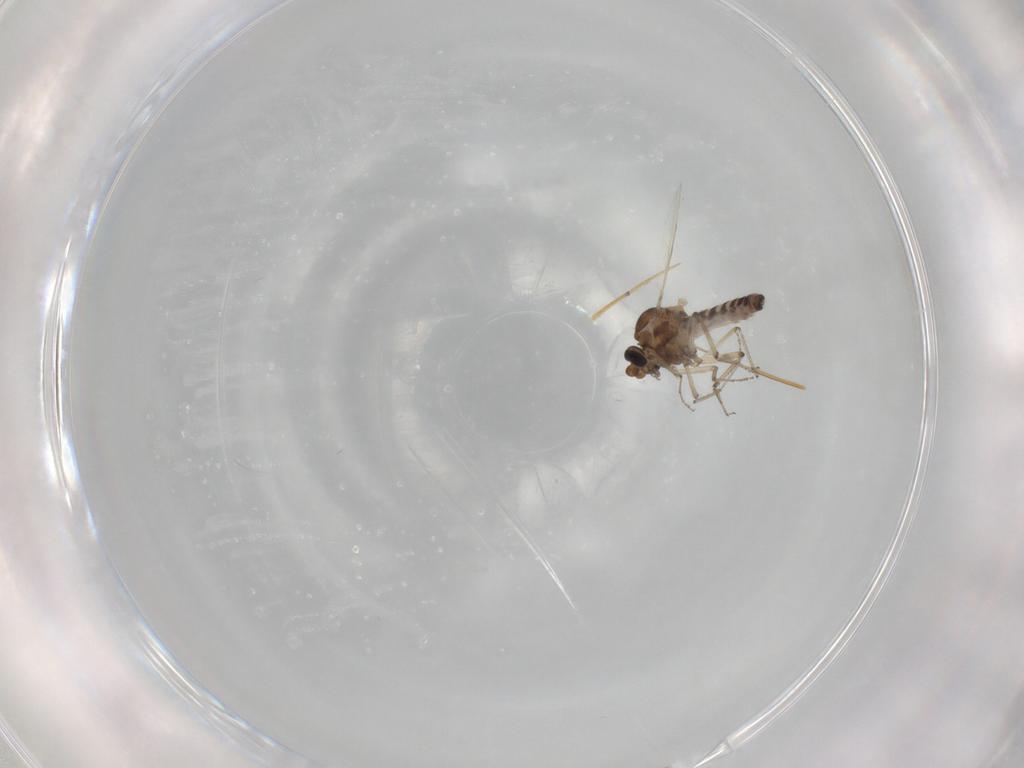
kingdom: Animalia
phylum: Arthropoda
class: Insecta
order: Diptera
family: Ceratopogonidae
